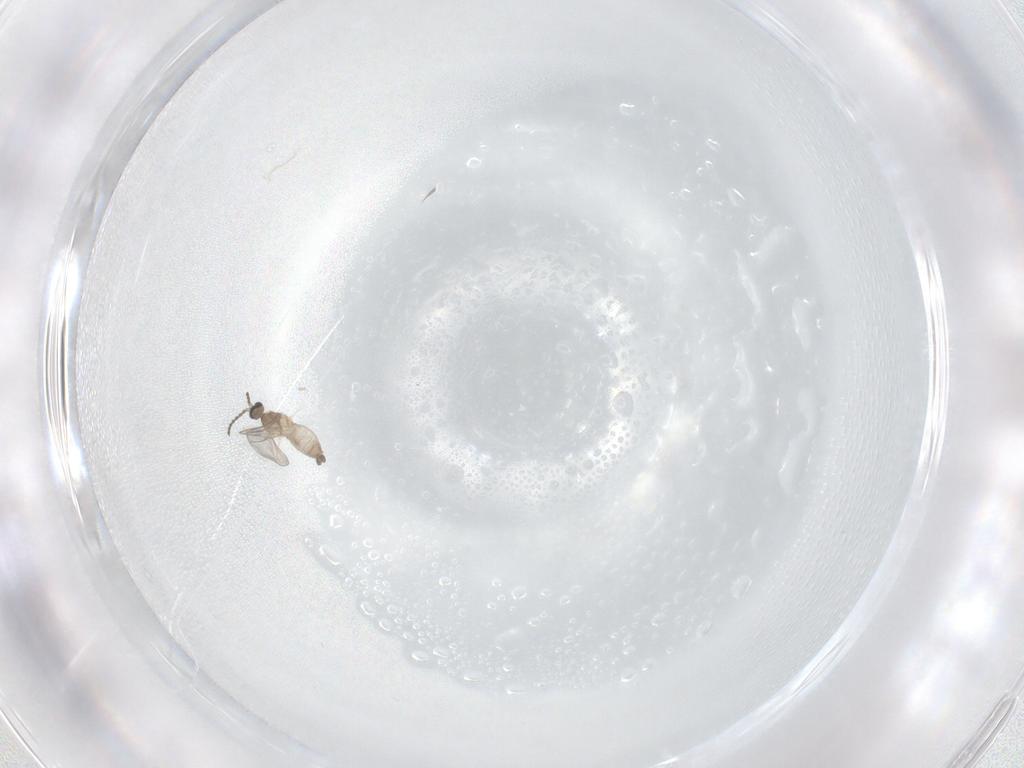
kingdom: Animalia
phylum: Arthropoda
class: Insecta
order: Diptera
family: Cecidomyiidae
